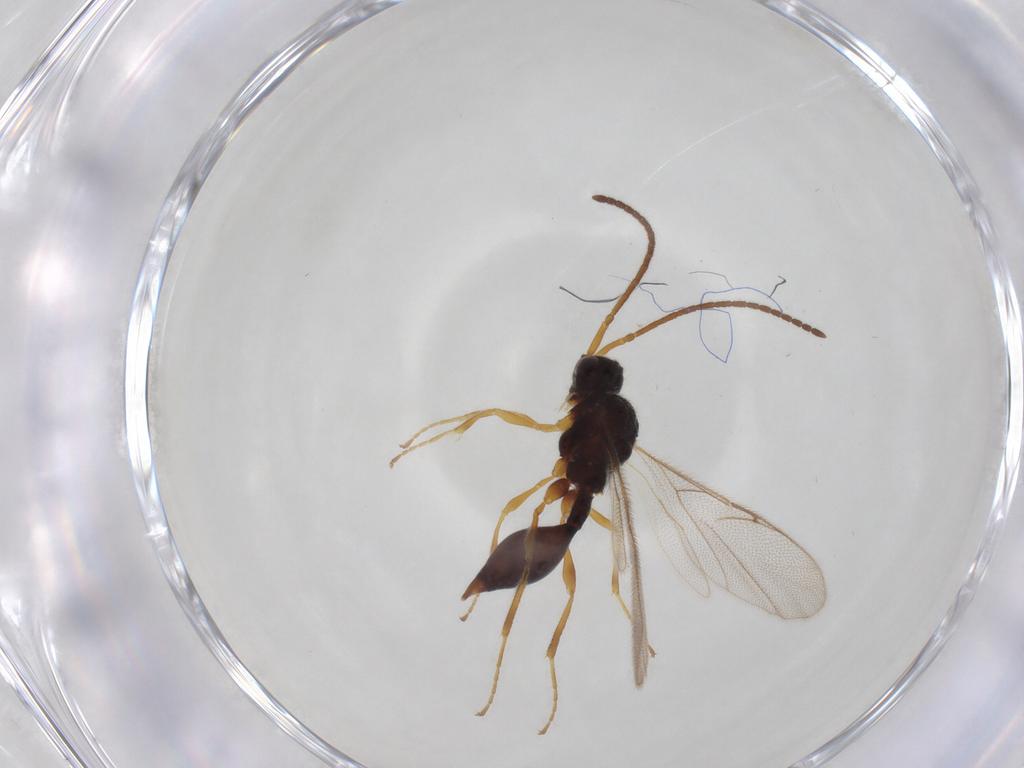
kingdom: Animalia
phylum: Arthropoda
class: Insecta
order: Hymenoptera
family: Diapriidae
